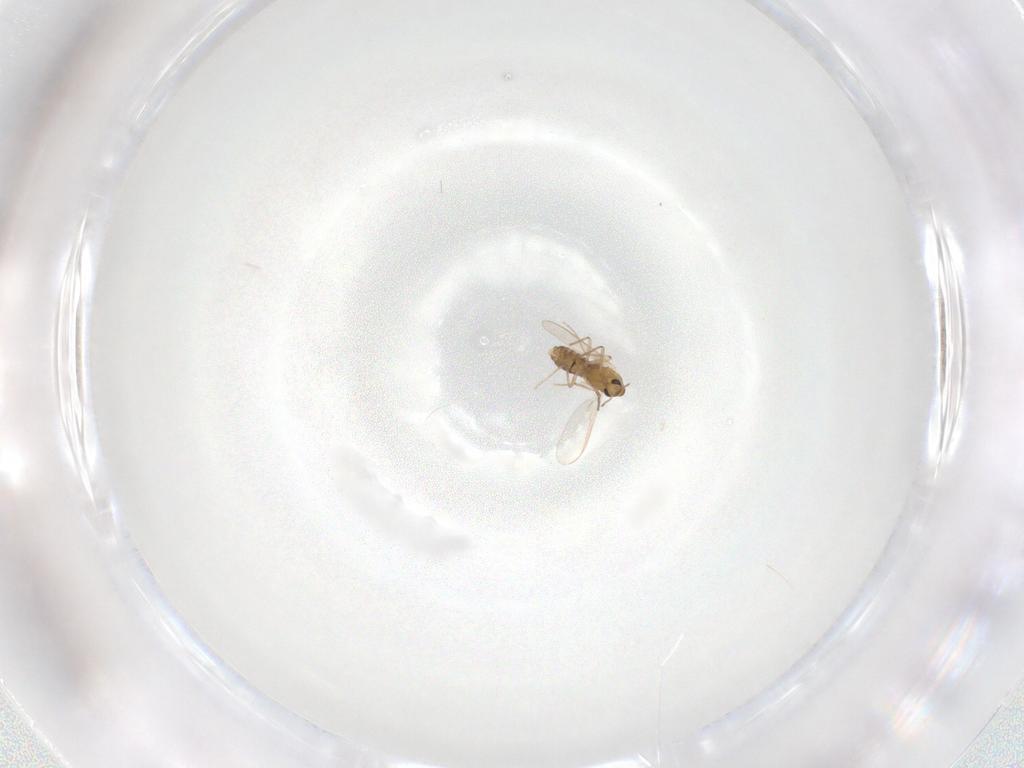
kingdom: Animalia
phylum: Arthropoda
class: Insecta
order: Diptera
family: Chironomidae
